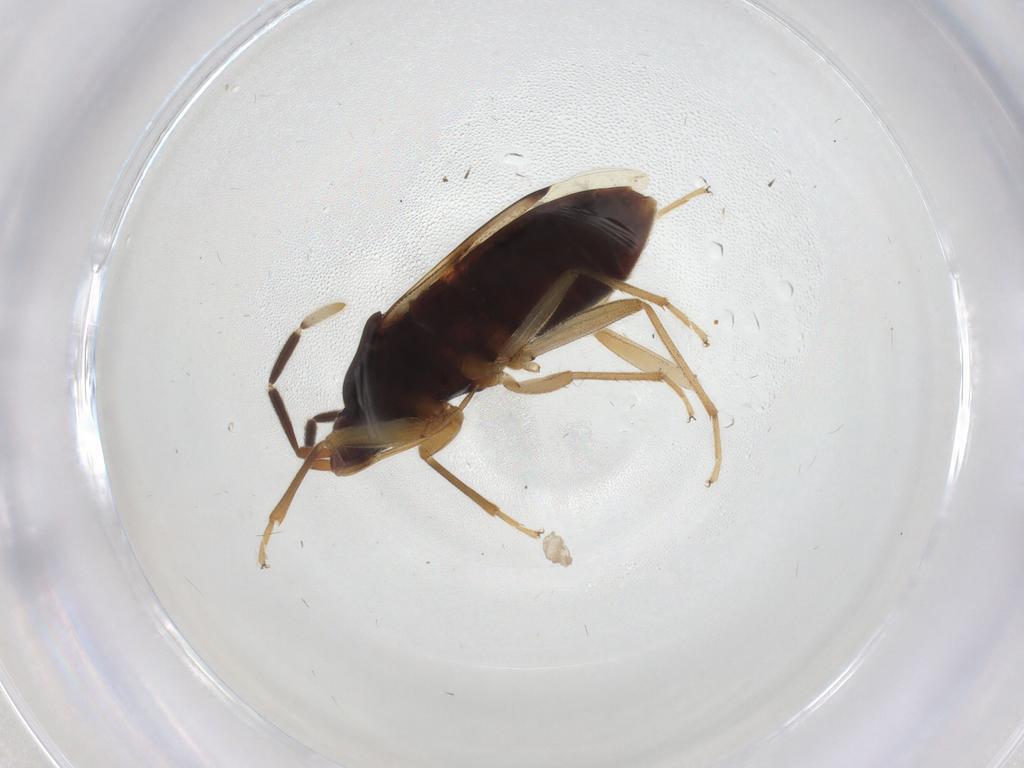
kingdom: Animalia
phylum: Arthropoda
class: Insecta
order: Hemiptera
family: Rhyparochromidae
